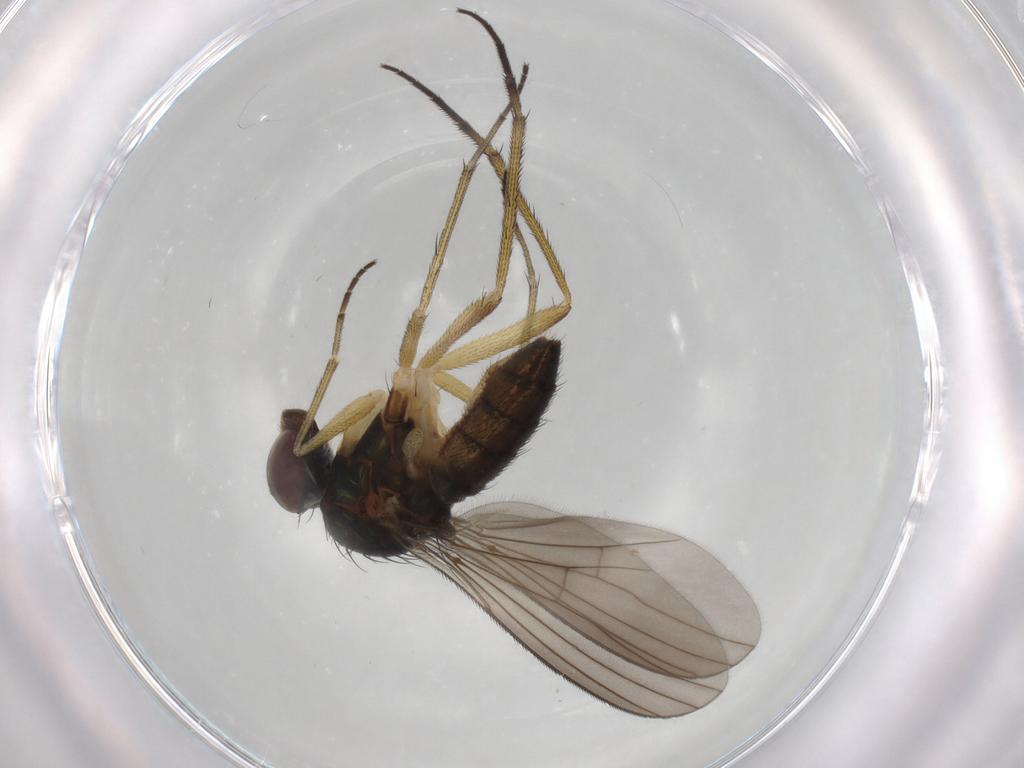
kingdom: Animalia
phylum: Arthropoda
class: Insecta
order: Diptera
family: Dolichopodidae
